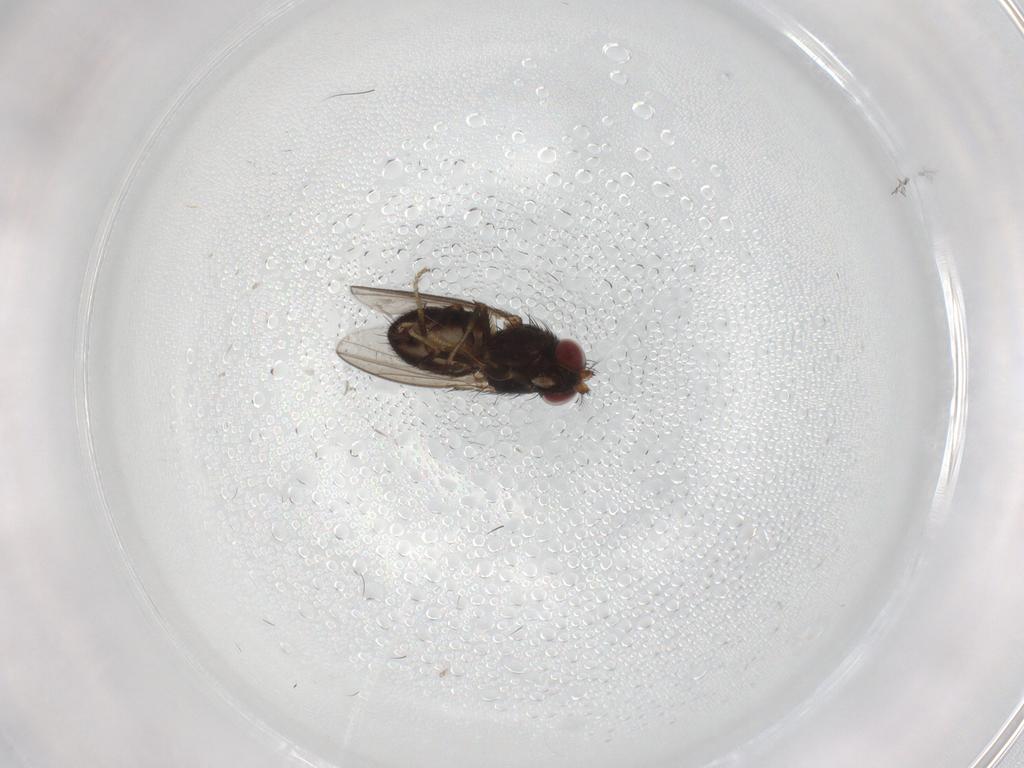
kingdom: Animalia
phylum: Arthropoda
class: Insecta
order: Diptera
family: Ephydridae
